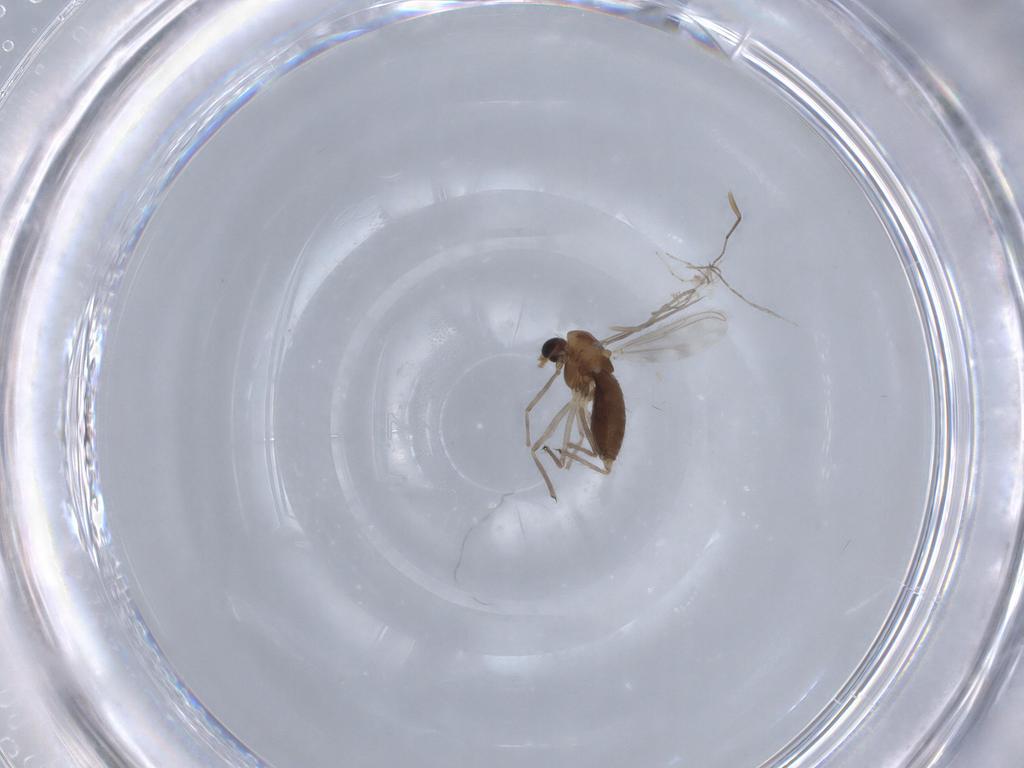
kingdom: Animalia
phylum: Arthropoda
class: Insecta
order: Diptera
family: Chironomidae
